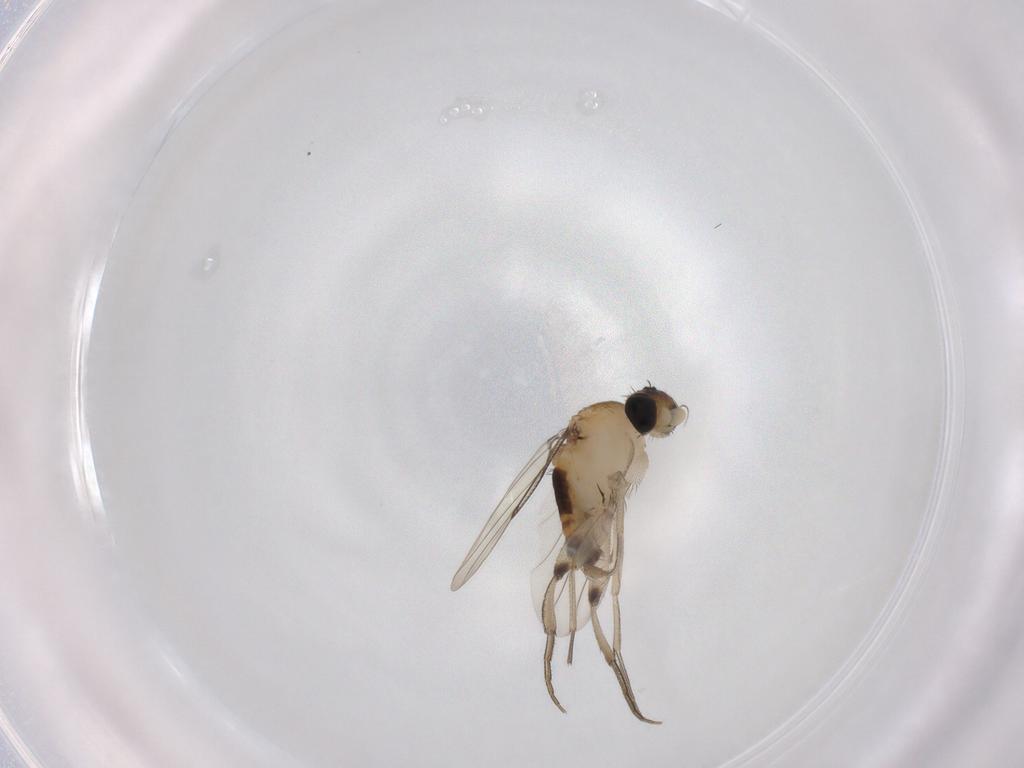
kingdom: Animalia
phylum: Arthropoda
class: Insecta
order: Diptera
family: Phoridae
